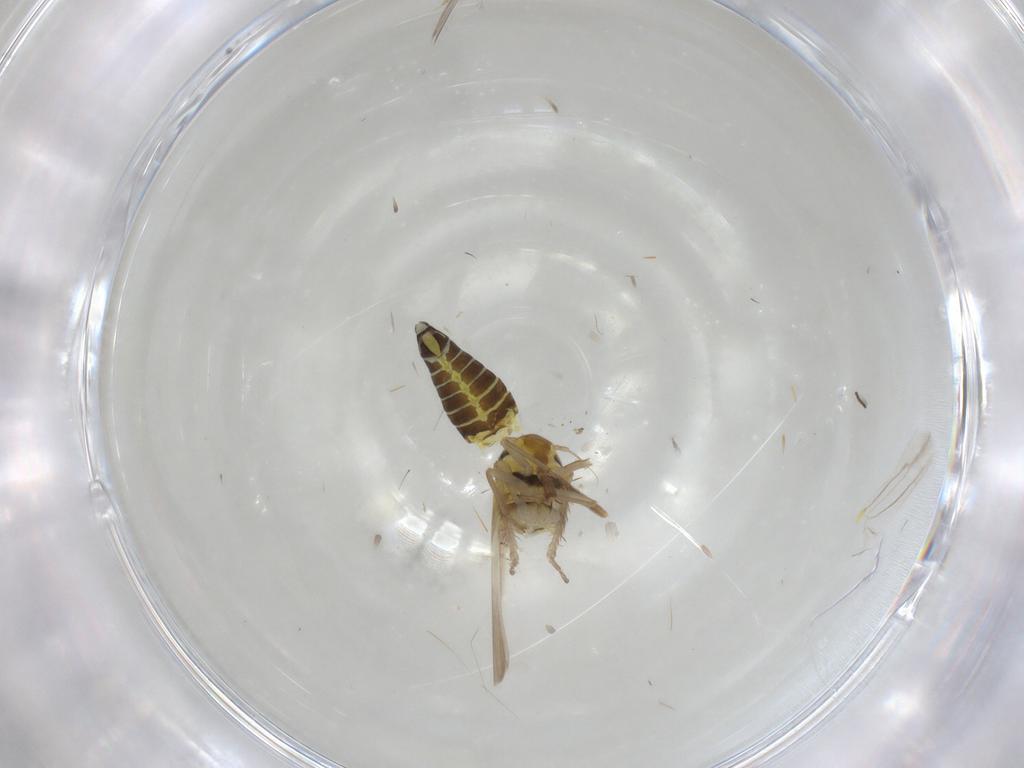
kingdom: Animalia
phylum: Arthropoda
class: Insecta
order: Hemiptera
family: Cicadellidae
